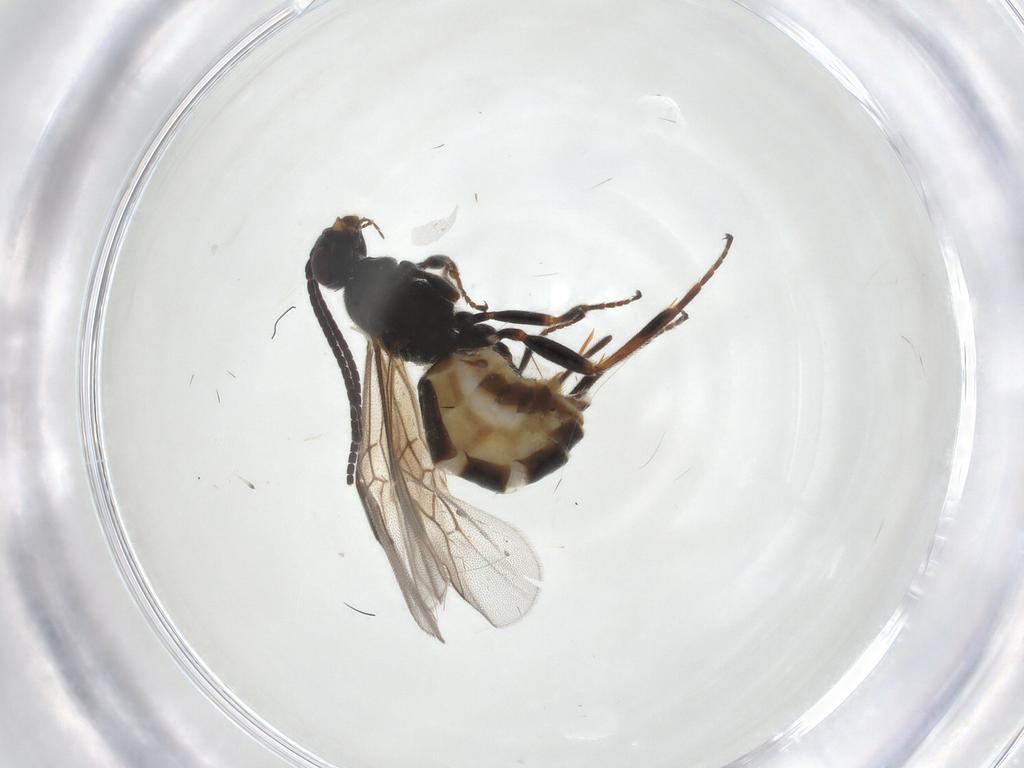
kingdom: Animalia
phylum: Arthropoda
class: Insecta
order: Hymenoptera
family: Braconidae
